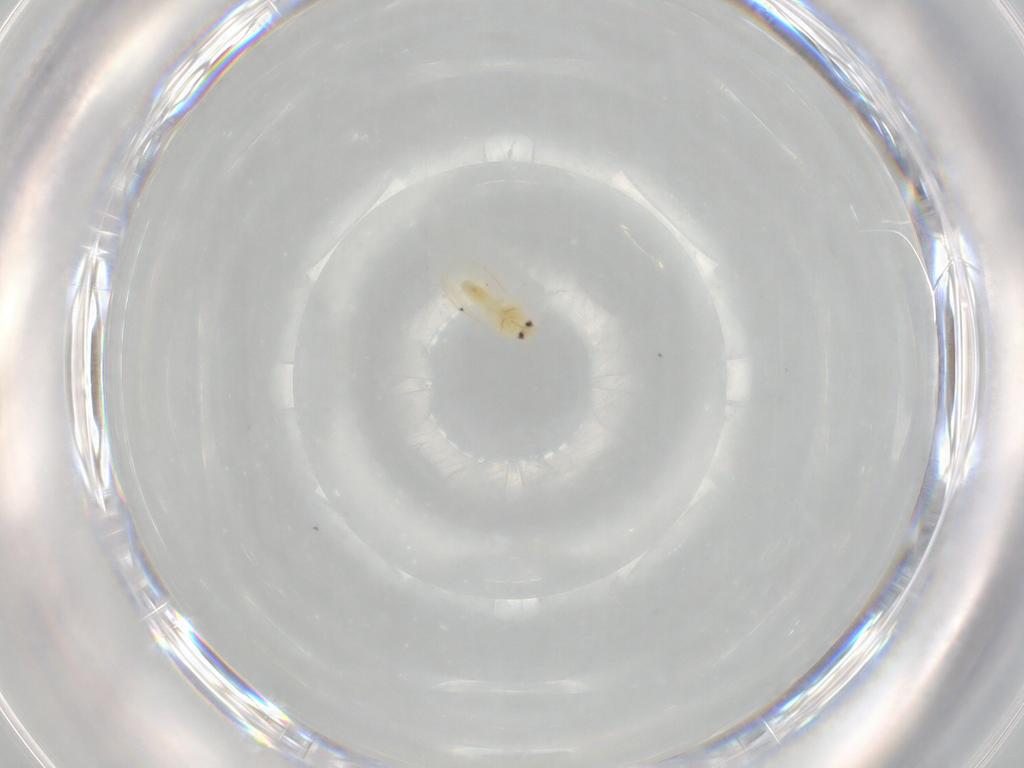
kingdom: Animalia
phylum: Arthropoda
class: Insecta
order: Hemiptera
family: Aleyrodidae
